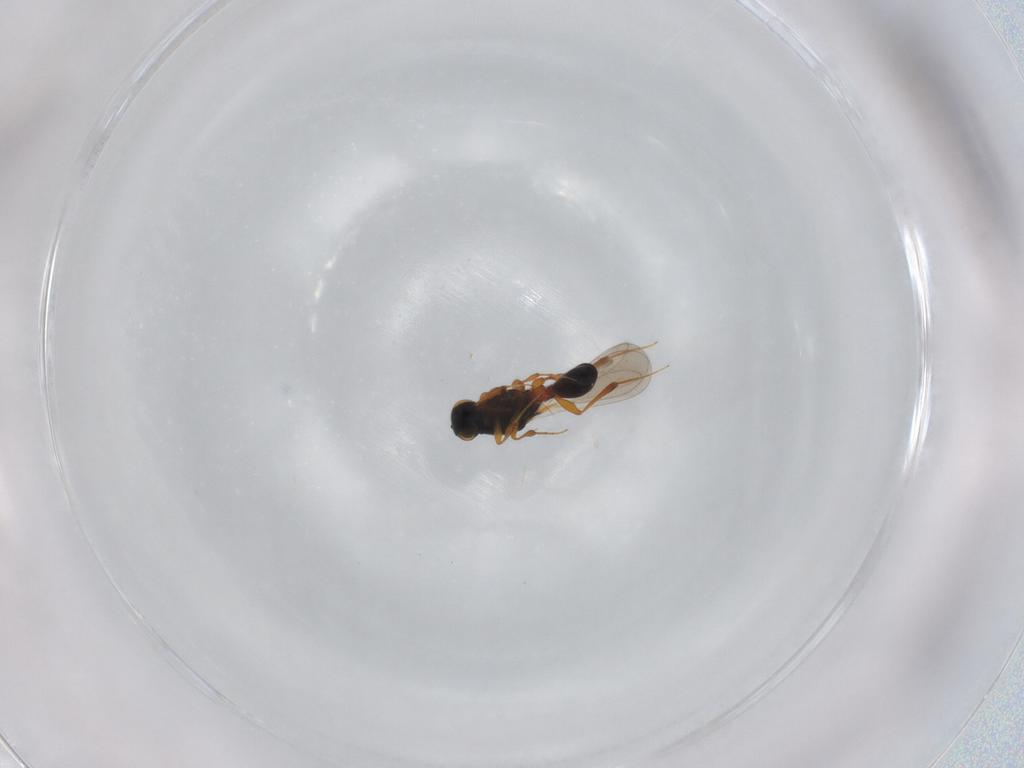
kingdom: Animalia
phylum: Arthropoda
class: Insecta
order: Hymenoptera
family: Platygastridae
